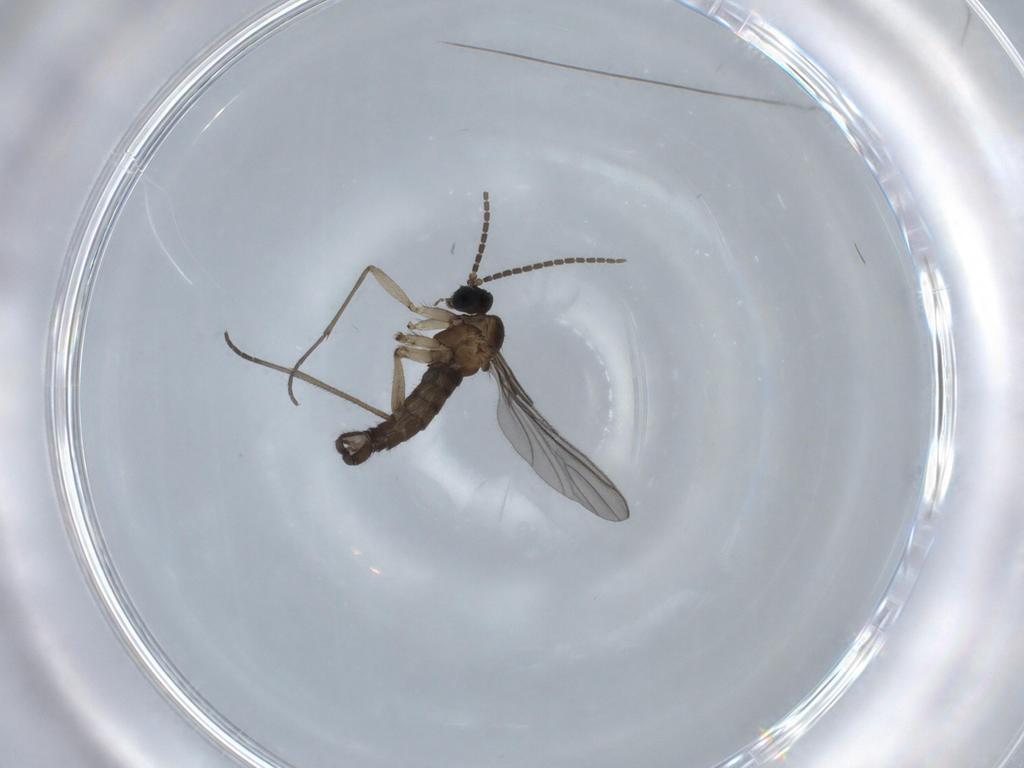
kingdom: Animalia
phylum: Arthropoda
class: Insecta
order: Diptera
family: Sciaridae
